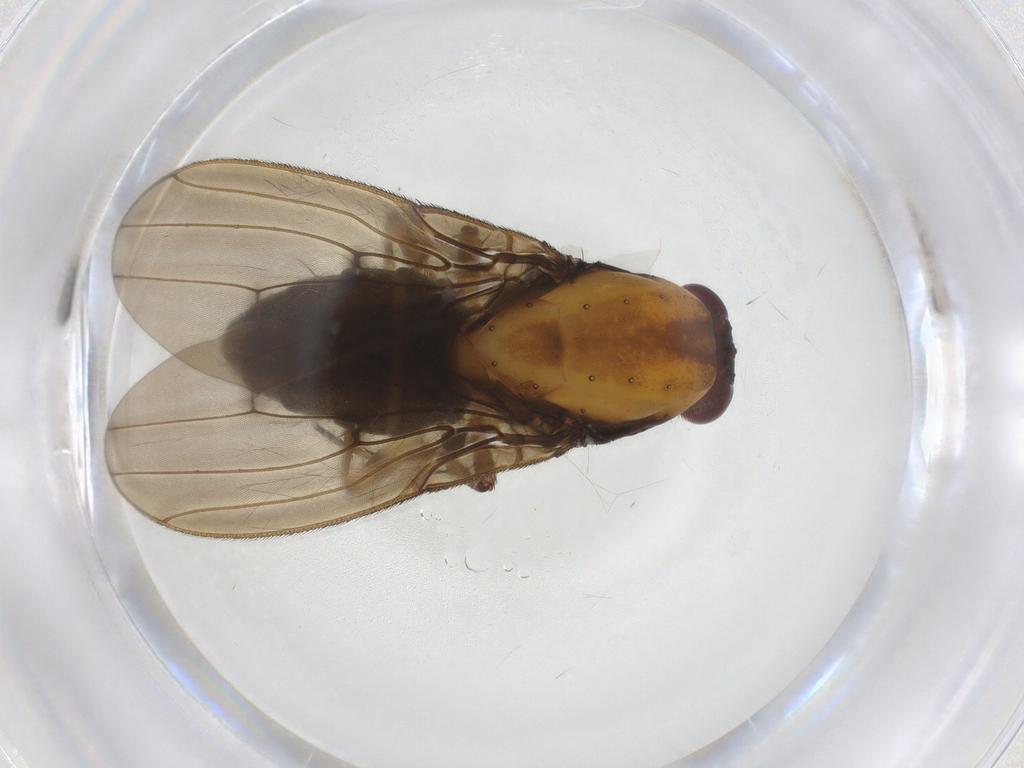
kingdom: Animalia
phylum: Arthropoda
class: Insecta
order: Diptera
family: Heleomyzidae
